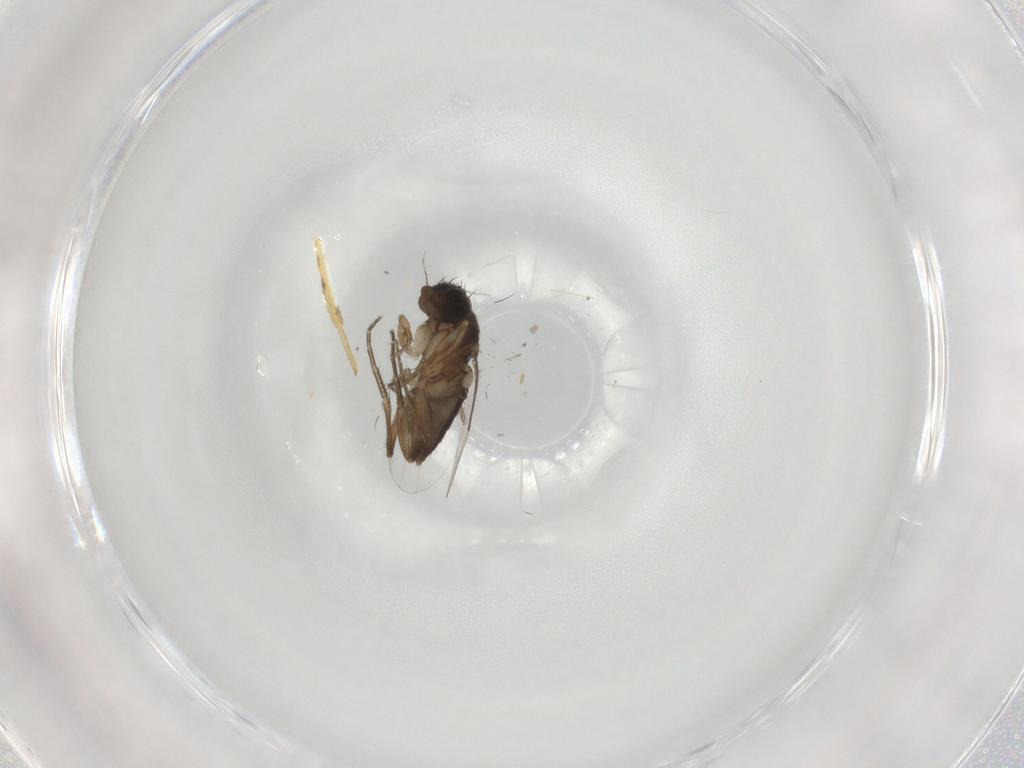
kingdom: Animalia
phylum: Arthropoda
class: Insecta
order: Diptera
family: Phoridae
